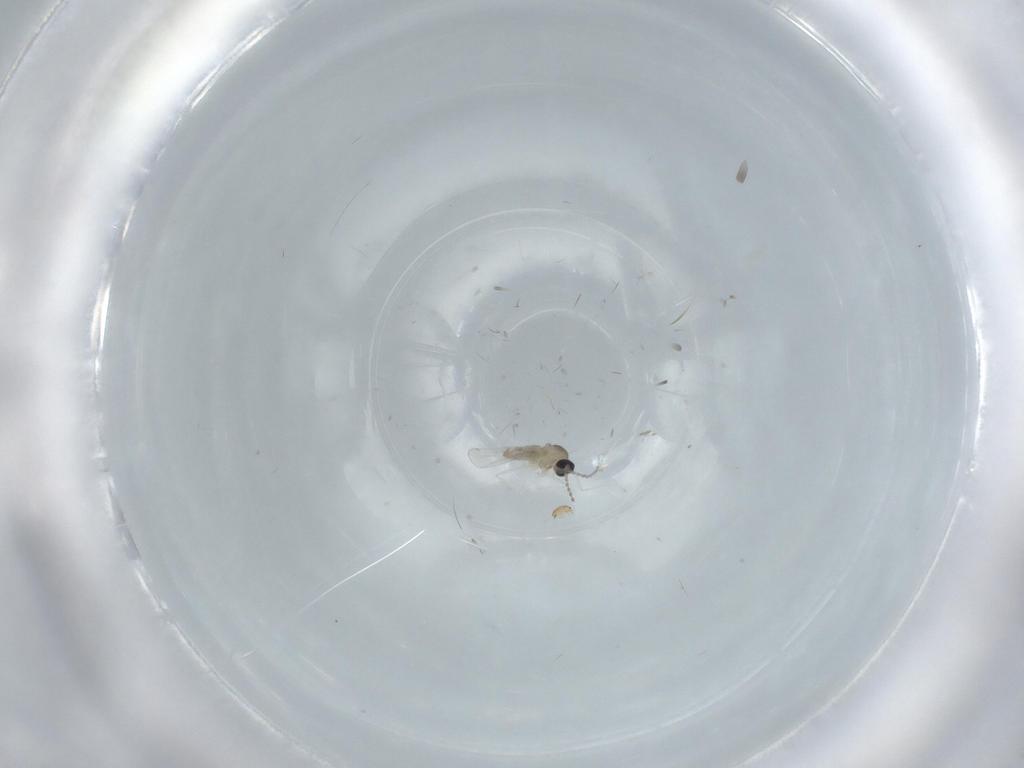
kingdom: Animalia
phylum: Arthropoda
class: Insecta
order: Diptera
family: Cecidomyiidae
